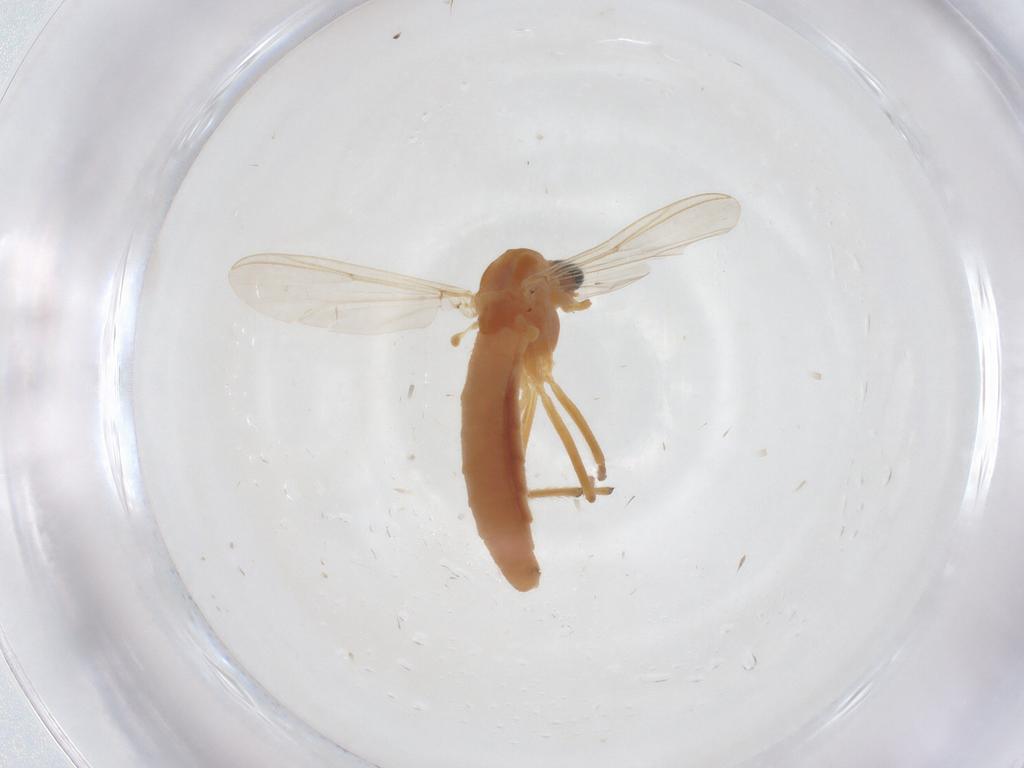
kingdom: Animalia
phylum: Arthropoda
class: Insecta
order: Diptera
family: Chironomidae
